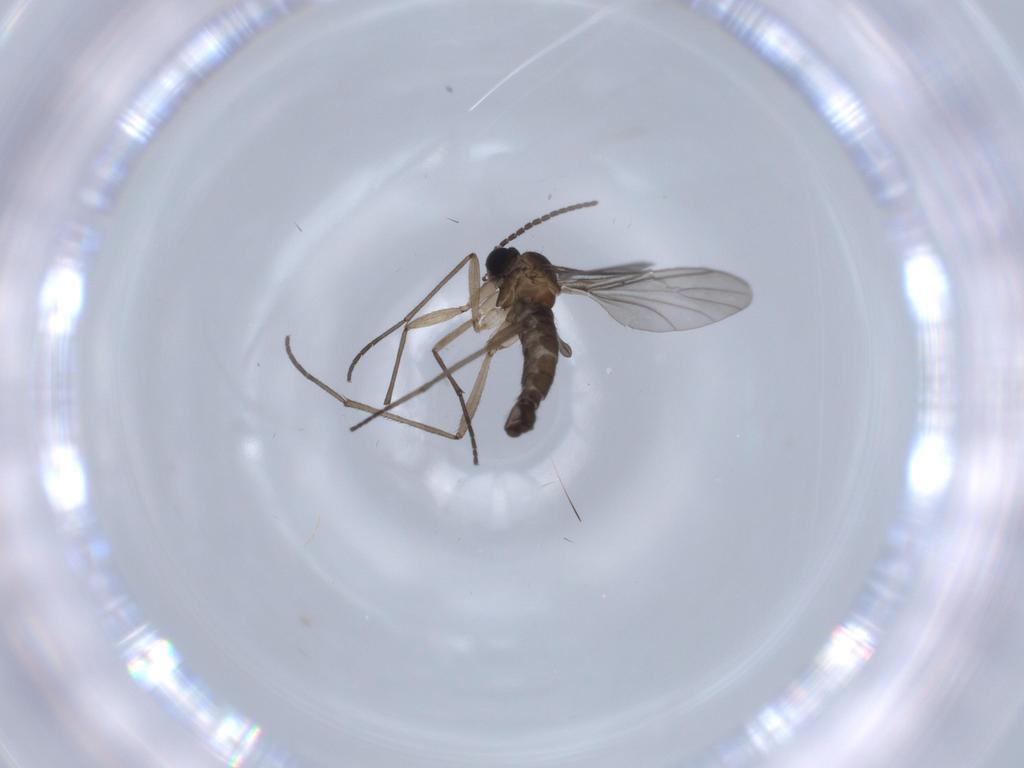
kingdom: Animalia
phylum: Arthropoda
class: Insecta
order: Diptera
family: Sciaridae
